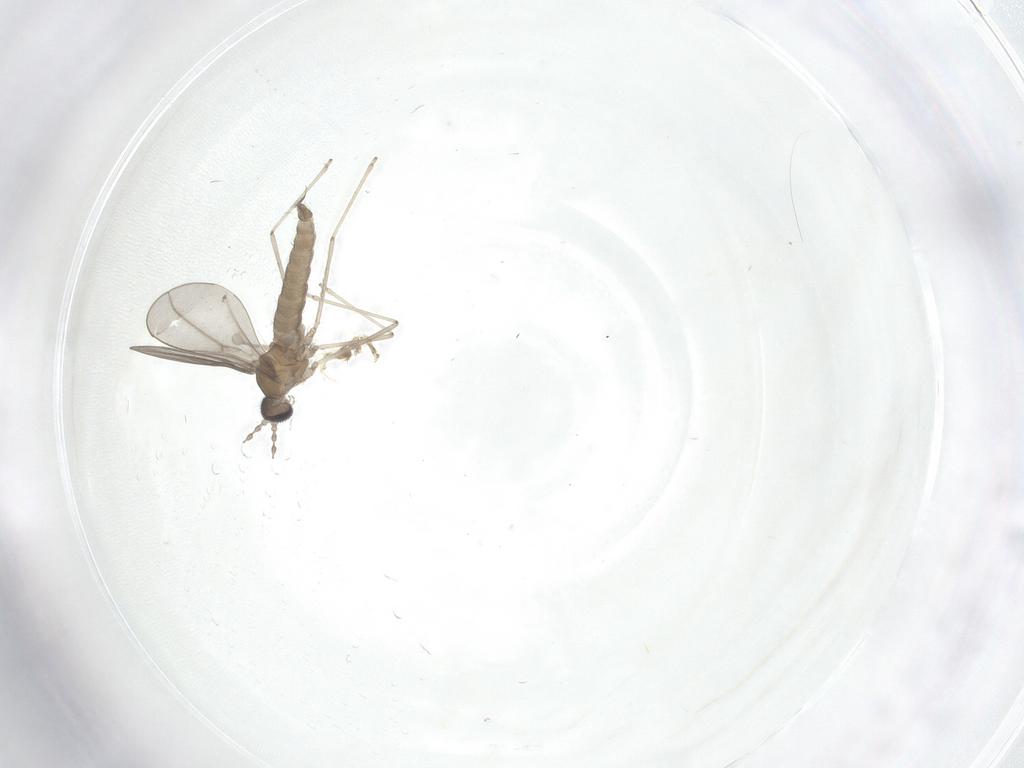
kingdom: Animalia
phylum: Arthropoda
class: Insecta
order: Diptera
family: Cecidomyiidae
